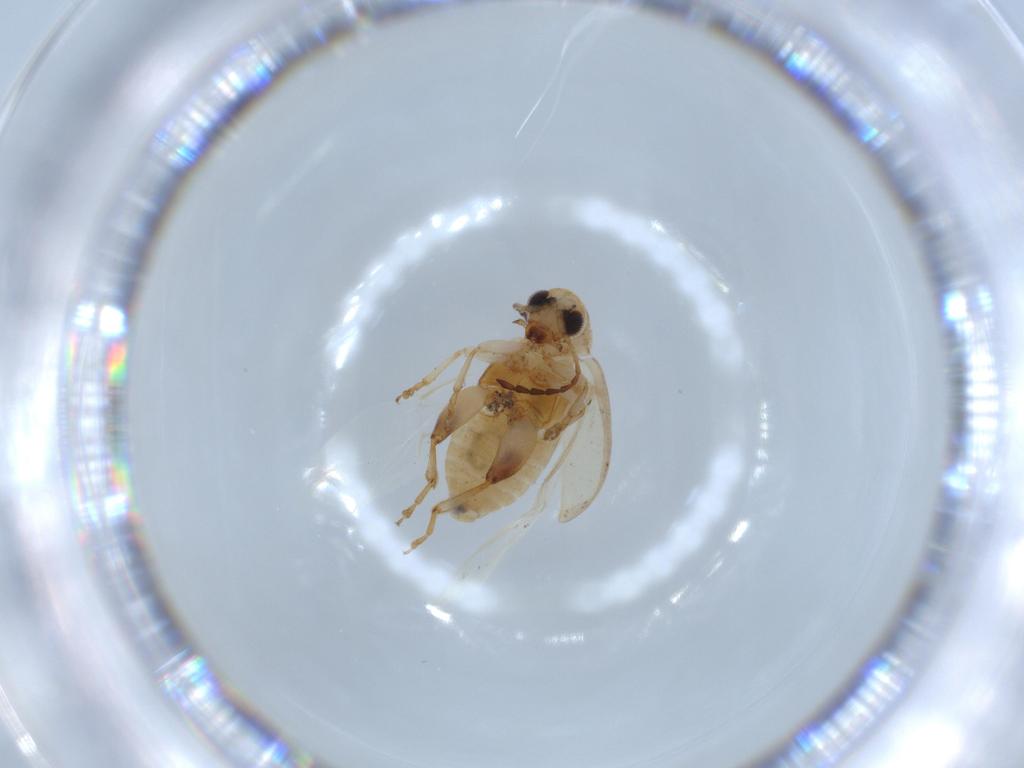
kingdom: Animalia
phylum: Arthropoda
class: Insecta
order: Coleoptera
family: Chrysomelidae
